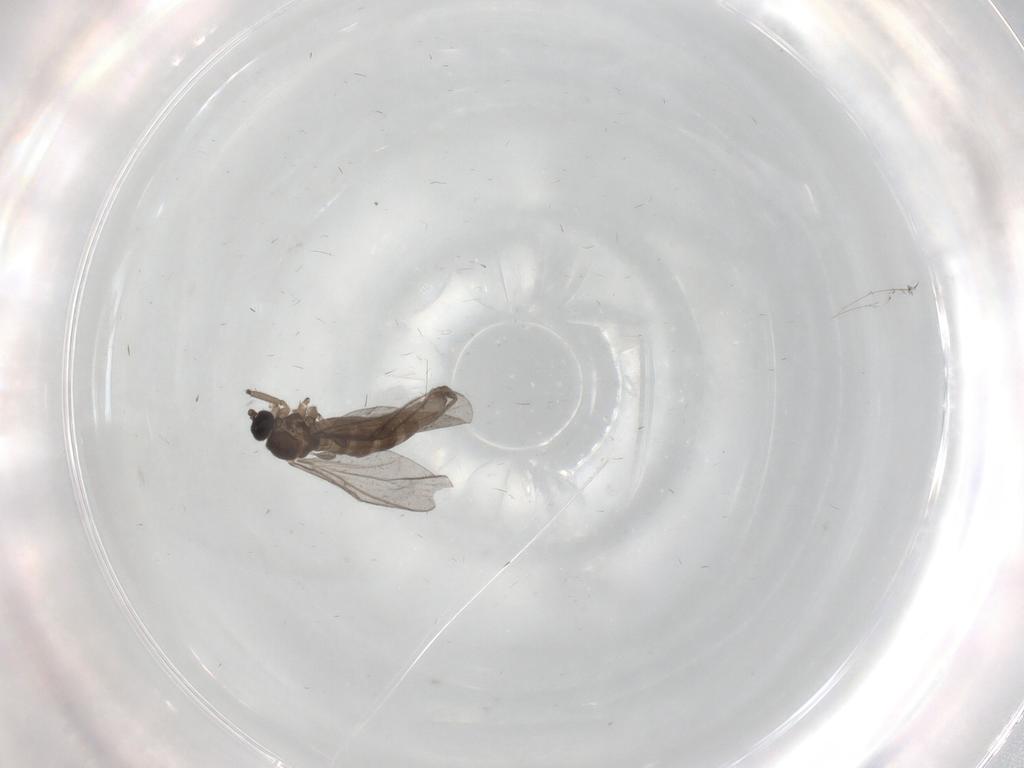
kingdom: Animalia
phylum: Arthropoda
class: Insecta
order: Diptera
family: Sciaridae
